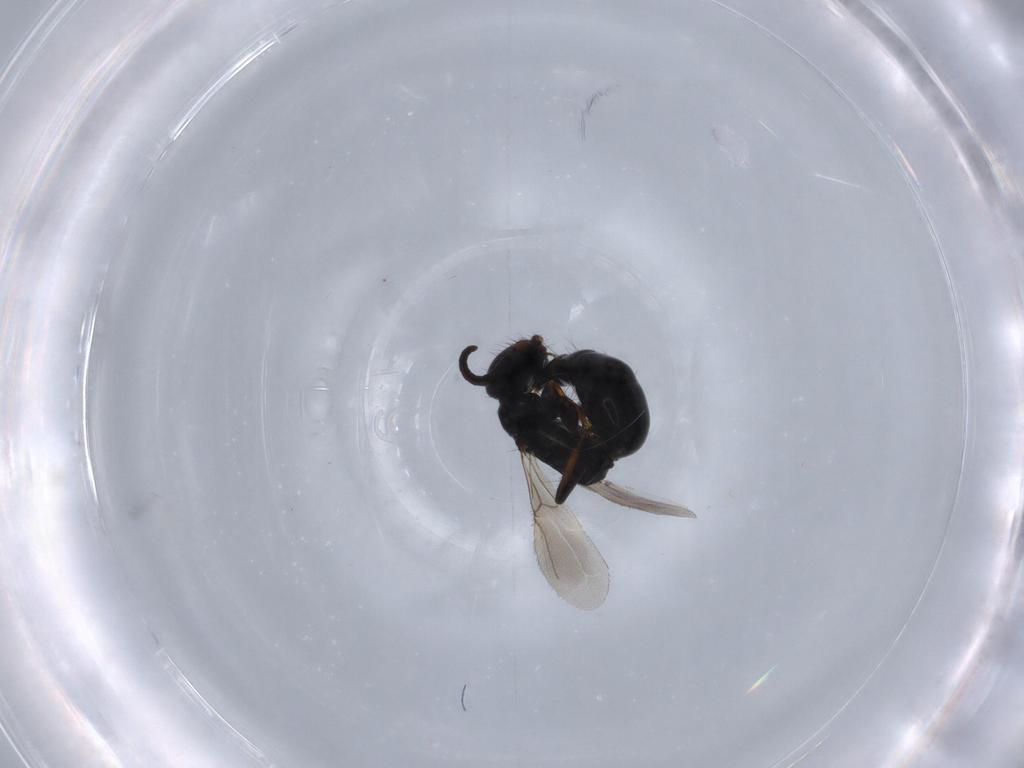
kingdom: Animalia
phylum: Arthropoda
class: Insecta
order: Hymenoptera
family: Bethylidae
